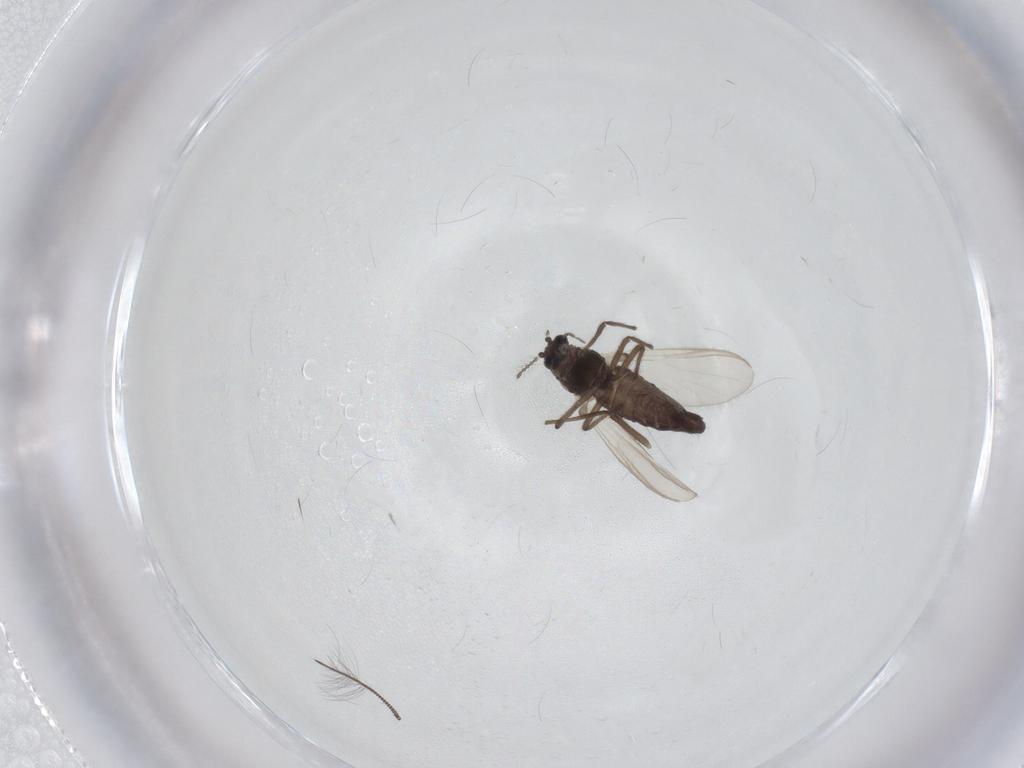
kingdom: Animalia
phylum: Arthropoda
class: Insecta
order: Diptera
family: Chironomidae
